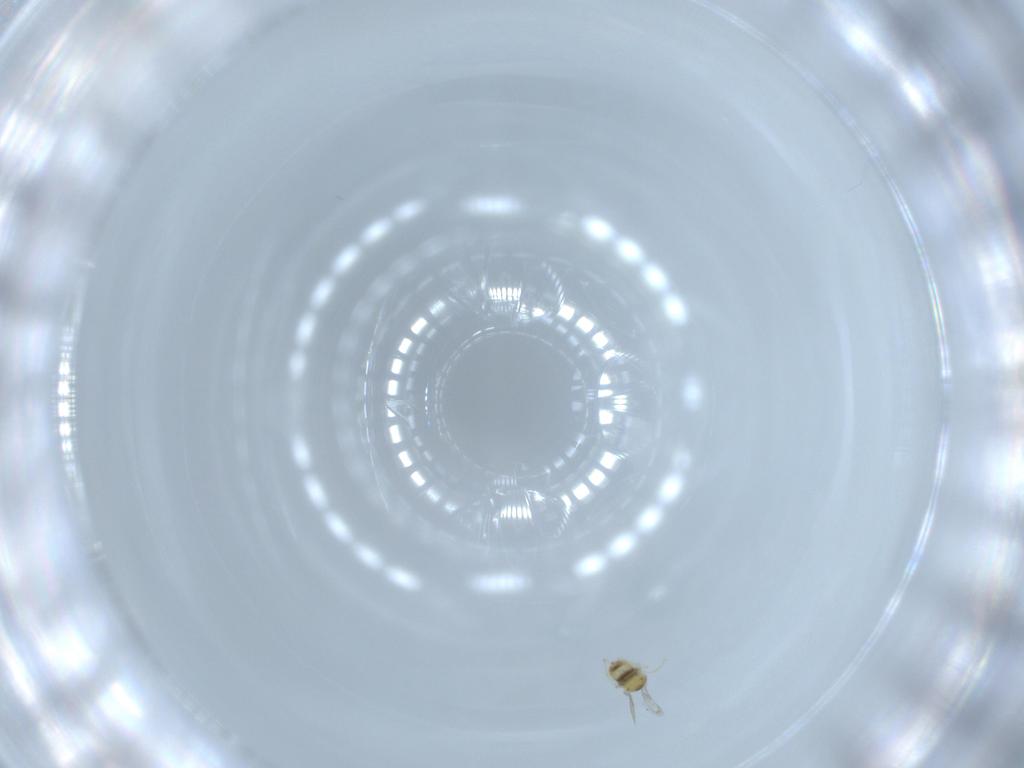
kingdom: Animalia
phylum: Arthropoda
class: Insecta
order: Hymenoptera
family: Aphelinidae
